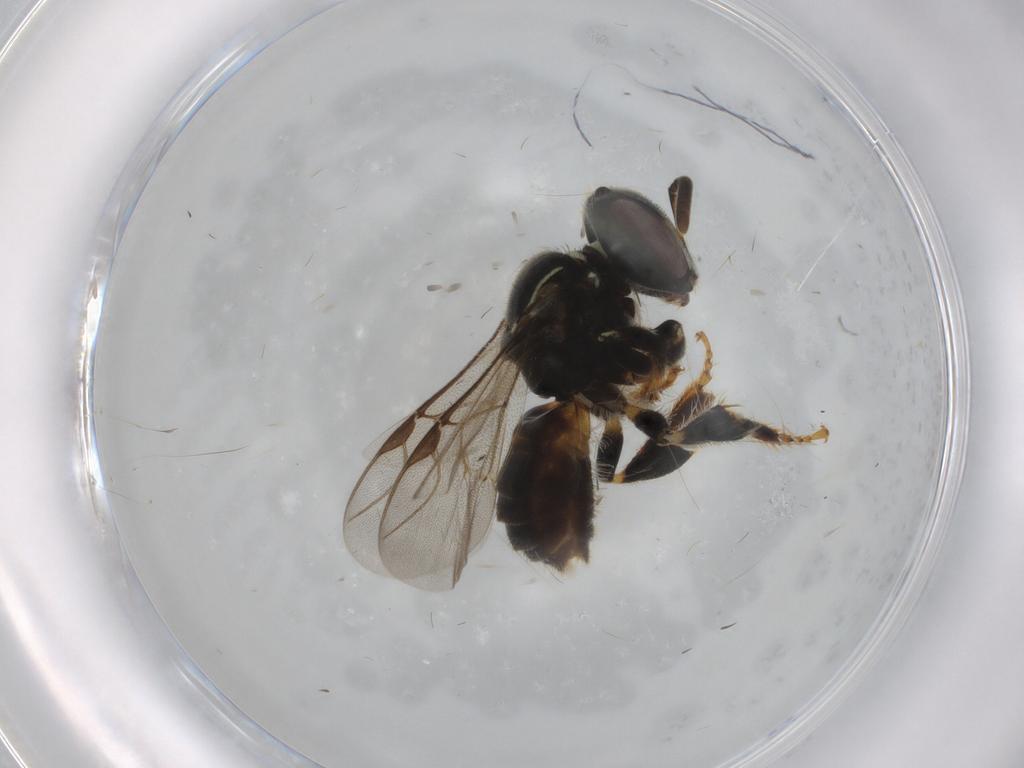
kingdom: Animalia
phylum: Arthropoda
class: Insecta
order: Hymenoptera
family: Apidae
